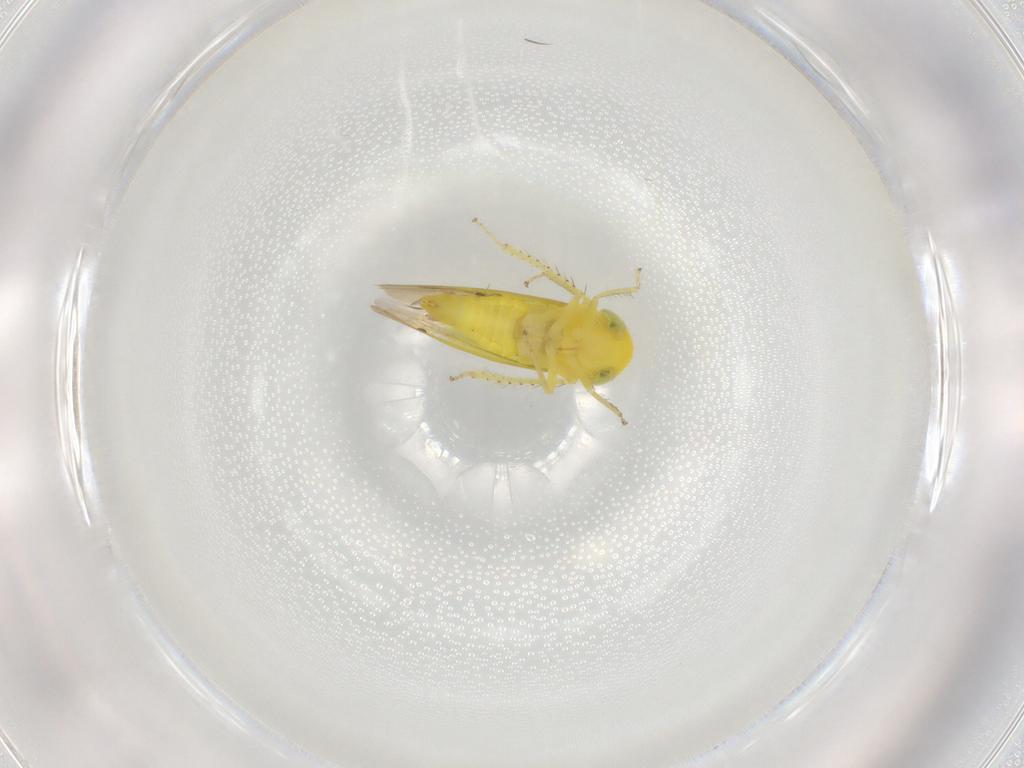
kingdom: Animalia
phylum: Arthropoda
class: Insecta
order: Hemiptera
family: Cicadellidae
